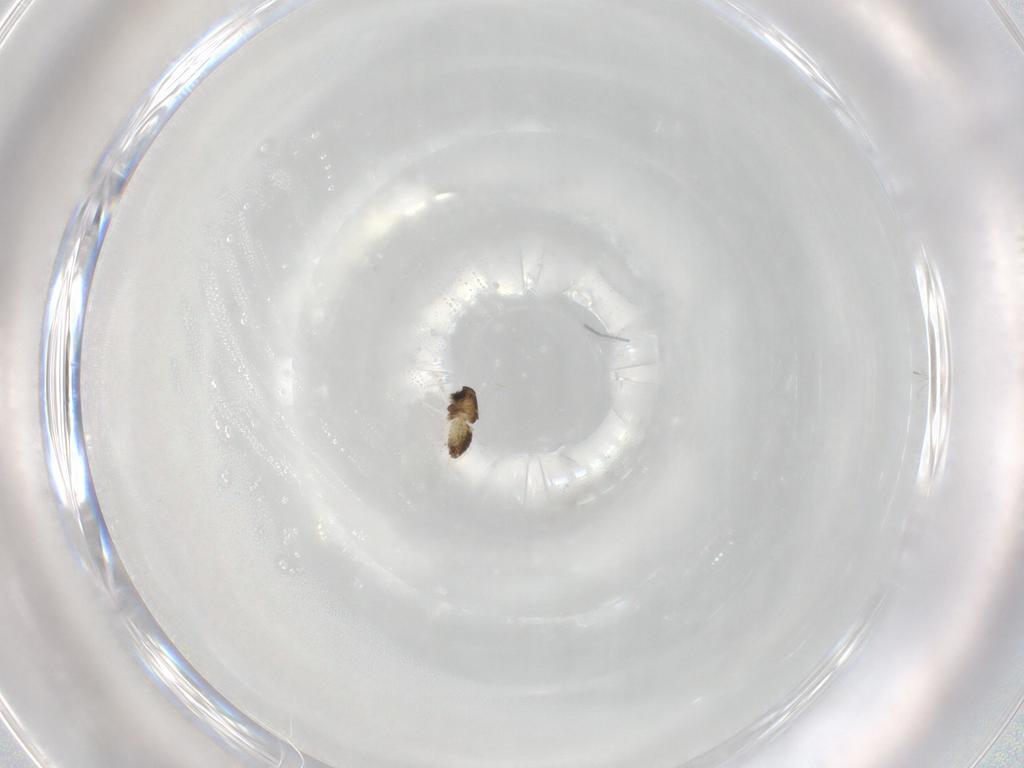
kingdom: Animalia
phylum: Arthropoda
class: Insecta
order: Diptera
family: Chironomidae
